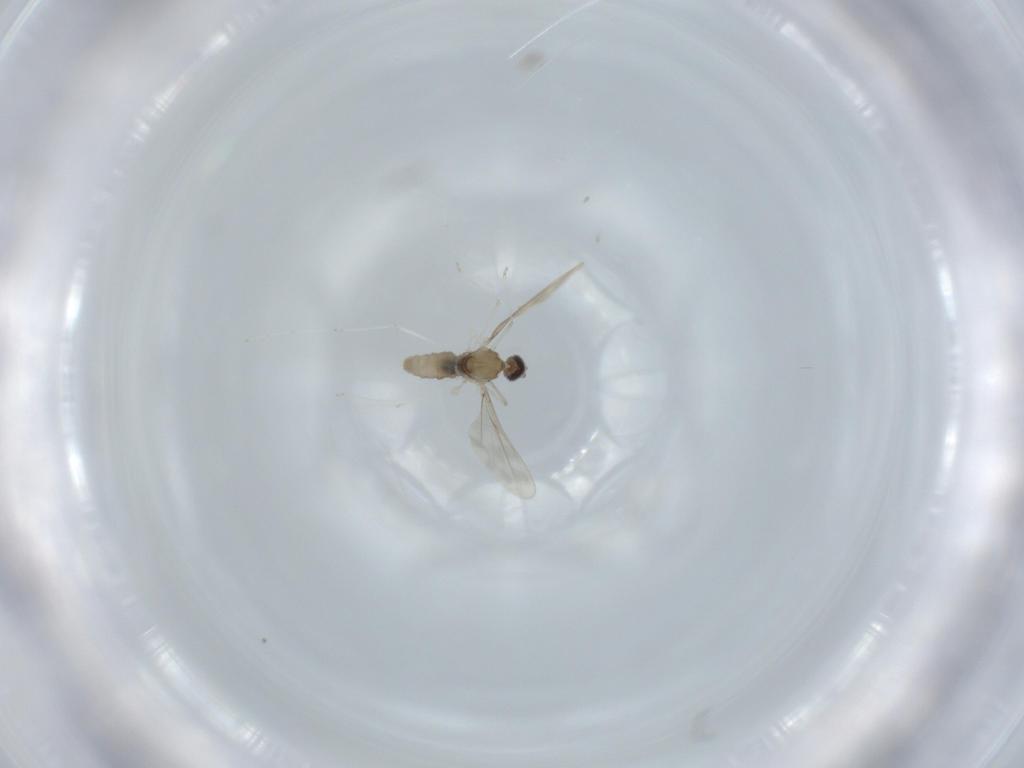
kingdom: Animalia
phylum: Arthropoda
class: Insecta
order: Diptera
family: Cecidomyiidae
